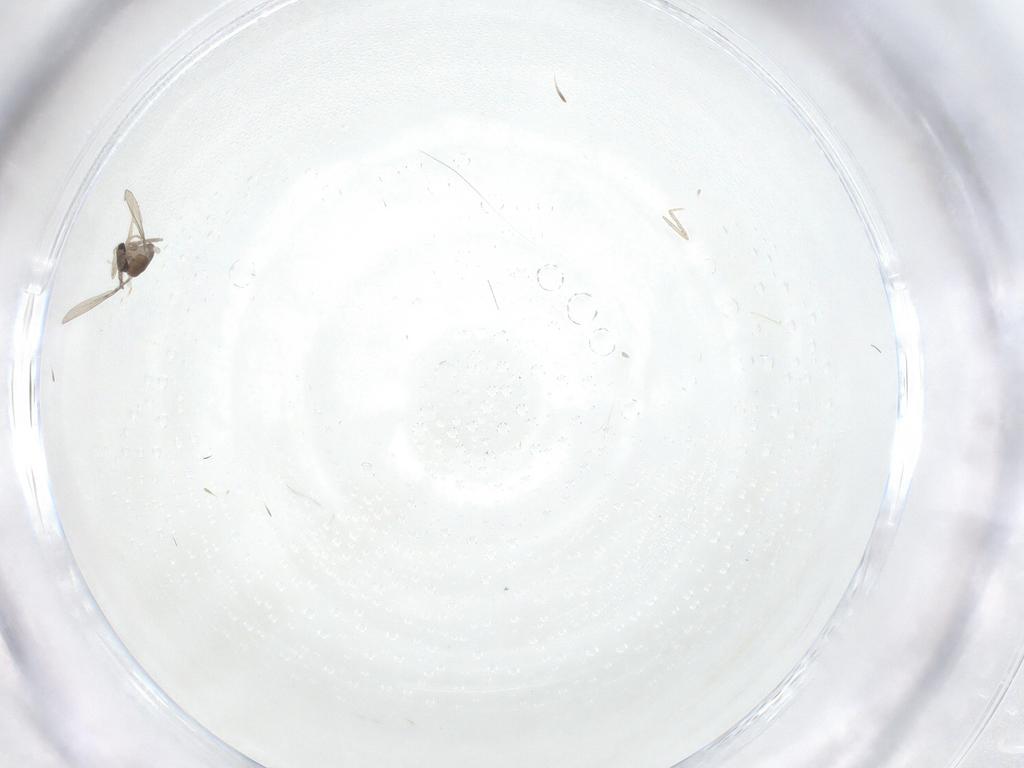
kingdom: Animalia
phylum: Arthropoda
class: Insecta
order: Diptera
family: Cecidomyiidae
